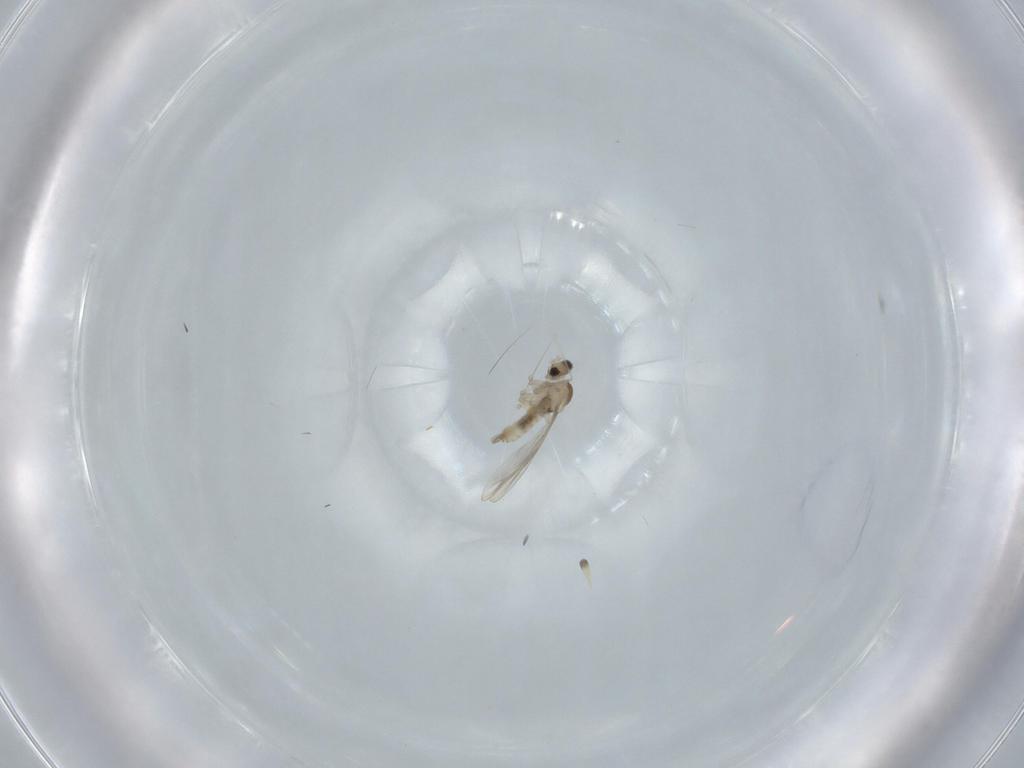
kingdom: Animalia
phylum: Arthropoda
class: Insecta
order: Diptera
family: Cecidomyiidae
